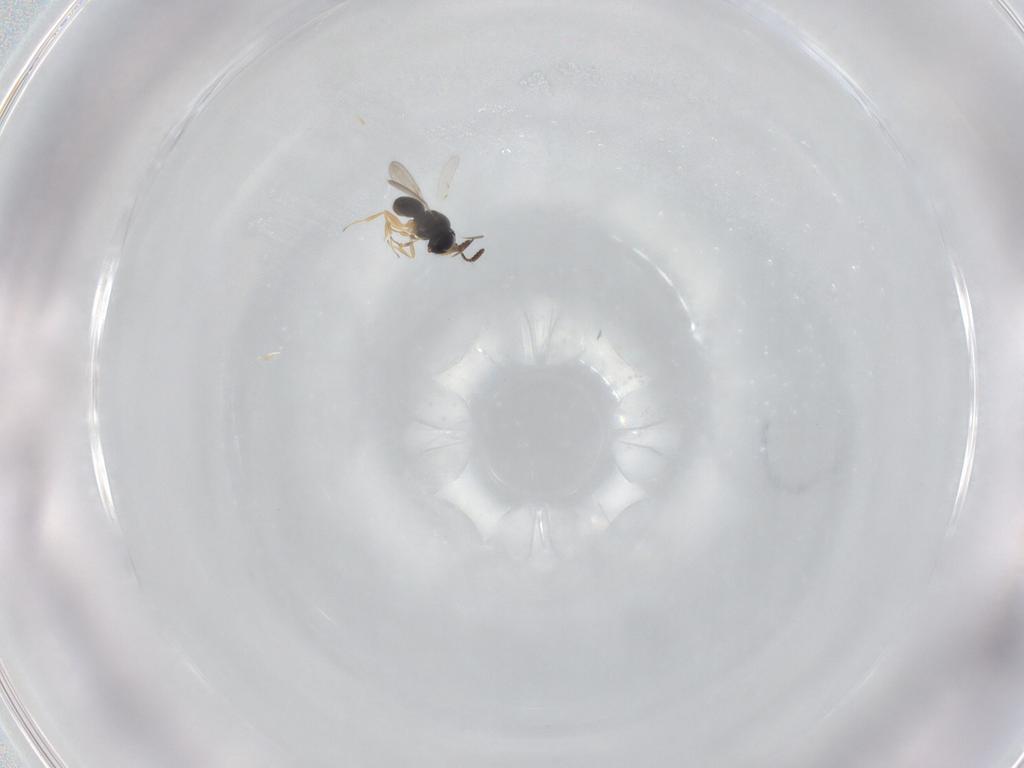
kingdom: Animalia
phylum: Arthropoda
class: Insecta
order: Hymenoptera
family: Scelionidae
